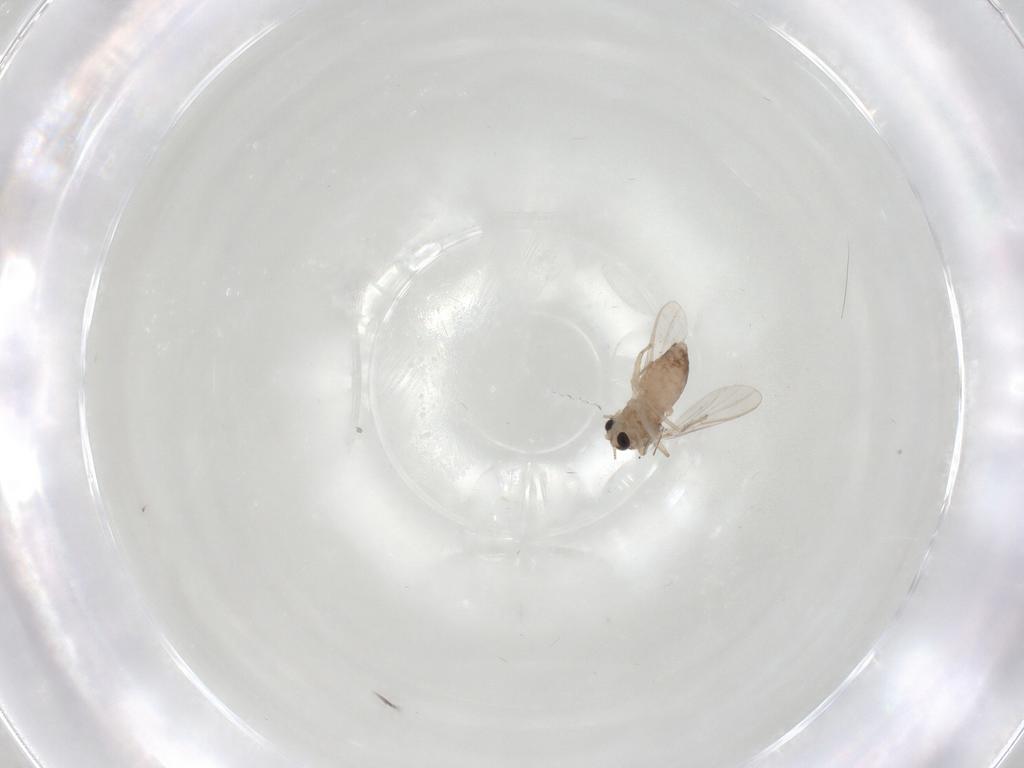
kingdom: Animalia
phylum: Arthropoda
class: Insecta
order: Diptera
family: Chironomidae
